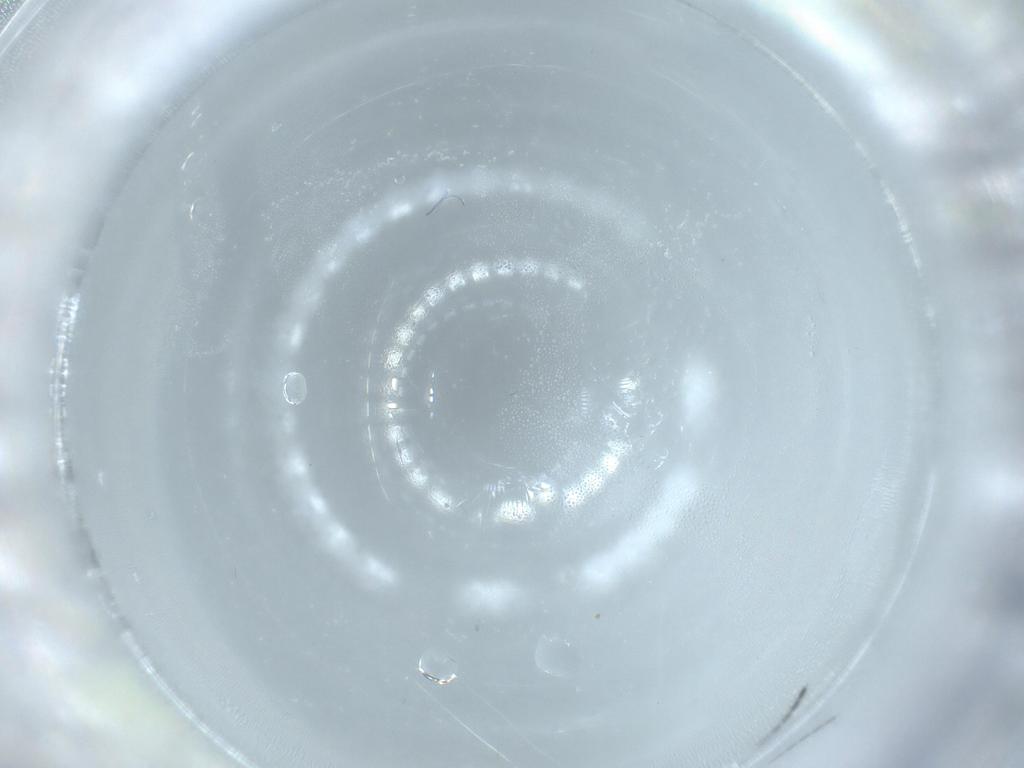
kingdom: Animalia
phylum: Arthropoda
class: Insecta
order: Diptera
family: Sciaridae
